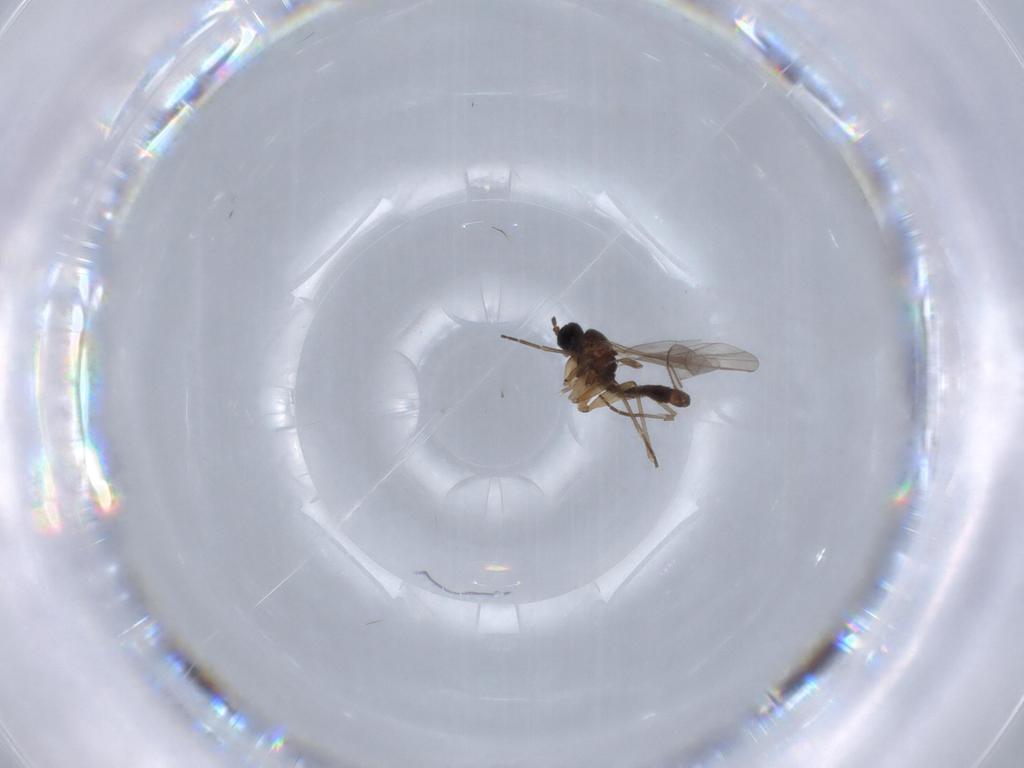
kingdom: Animalia
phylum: Arthropoda
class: Insecta
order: Diptera
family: Sciaridae
